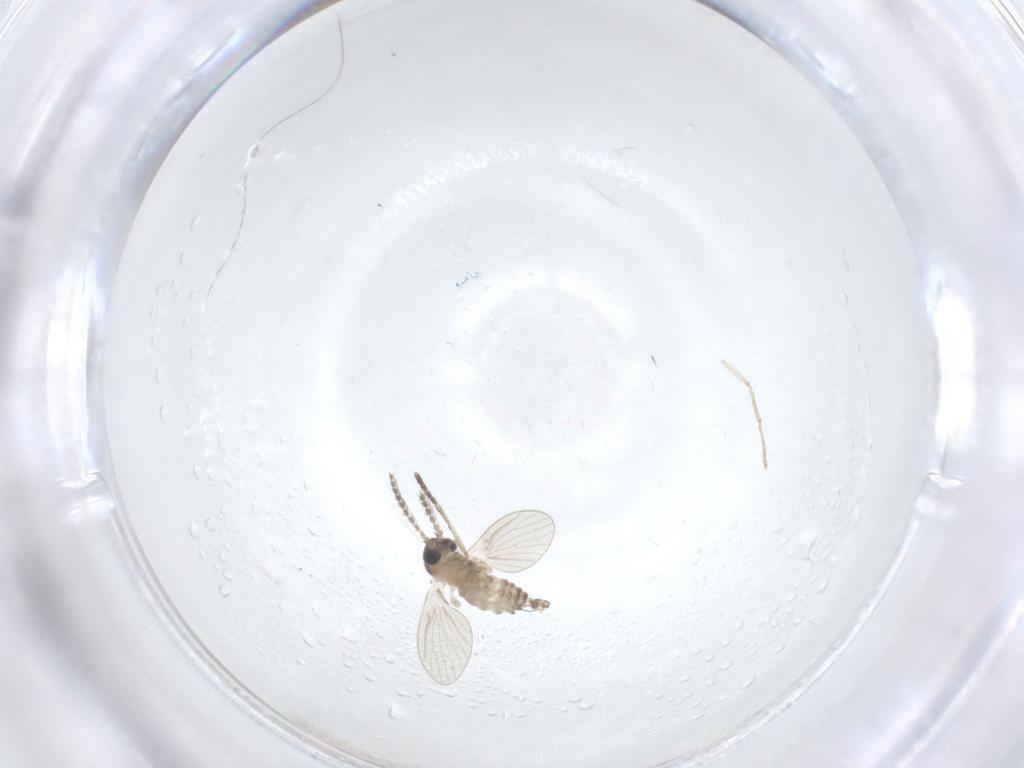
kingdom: Animalia
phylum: Arthropoda
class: Insecta
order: Diptera
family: Psychodidae
